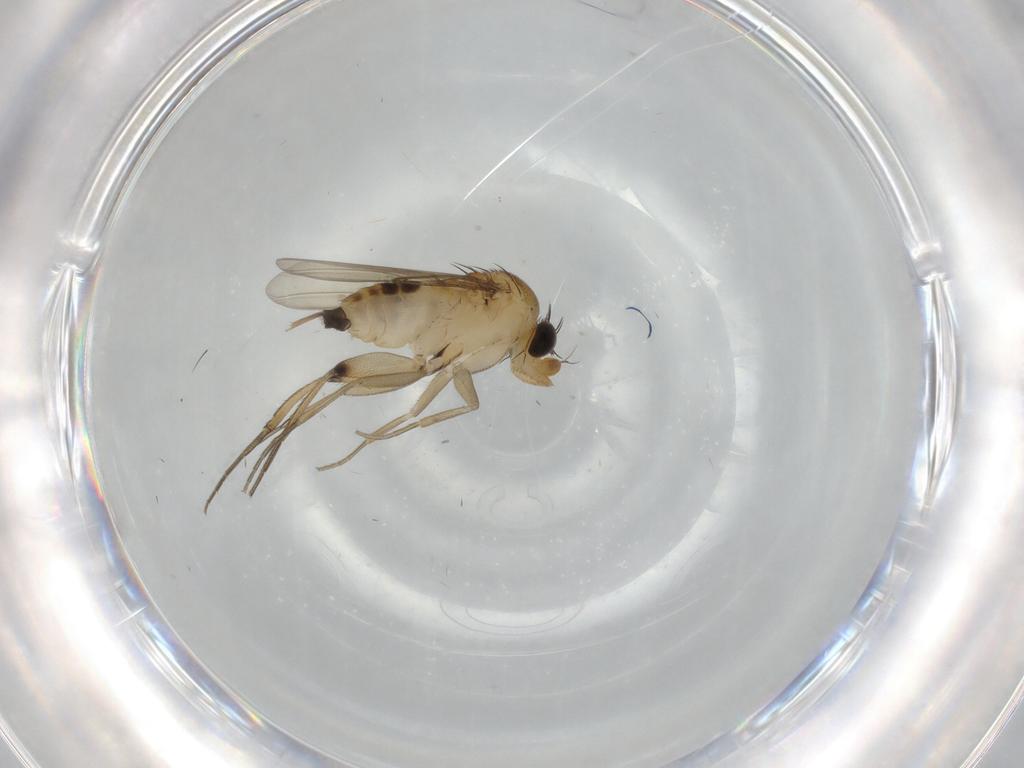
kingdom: Animalia
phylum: Arthropoda
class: Insecta
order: Diptera
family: Phoridae
